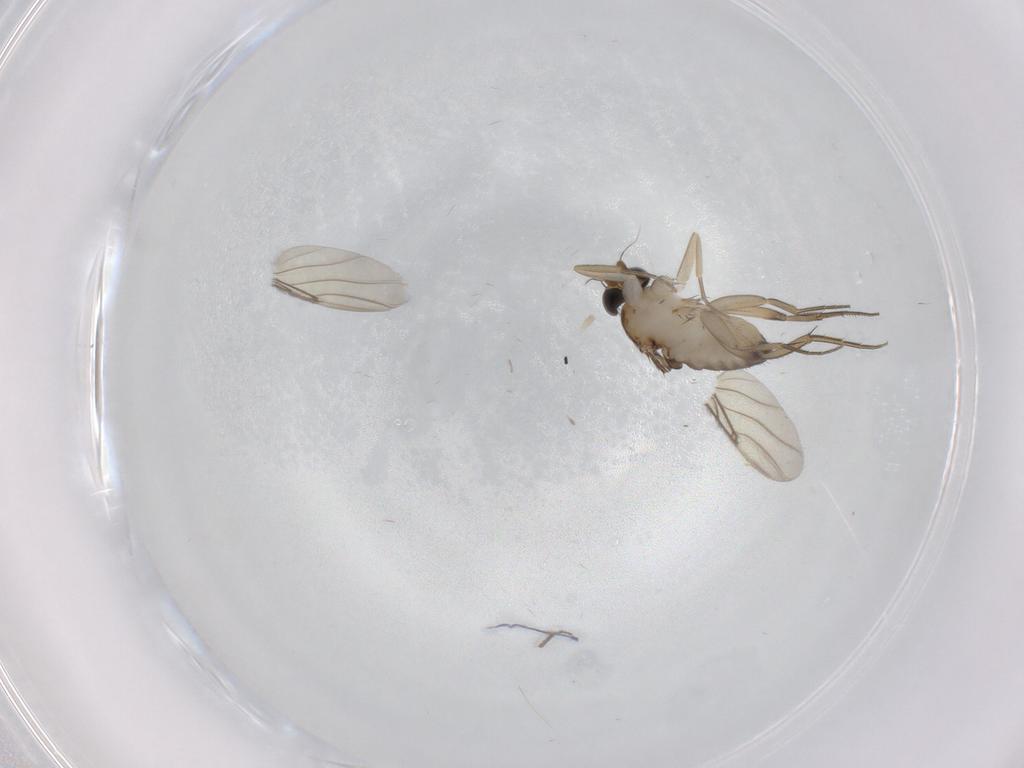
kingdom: Animalia
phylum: Arthropoda
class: Insecta
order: Diptera
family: Phoridae
